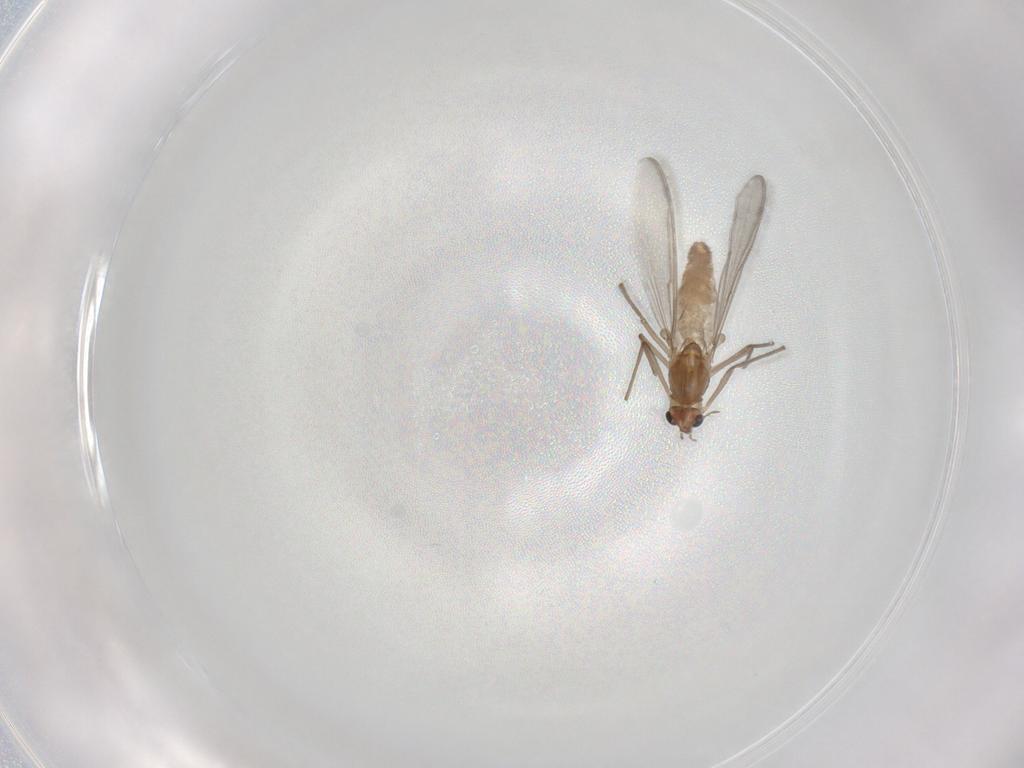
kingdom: Animalia
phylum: Arthropoda
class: Insecta
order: Diptera
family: Chironomidae
